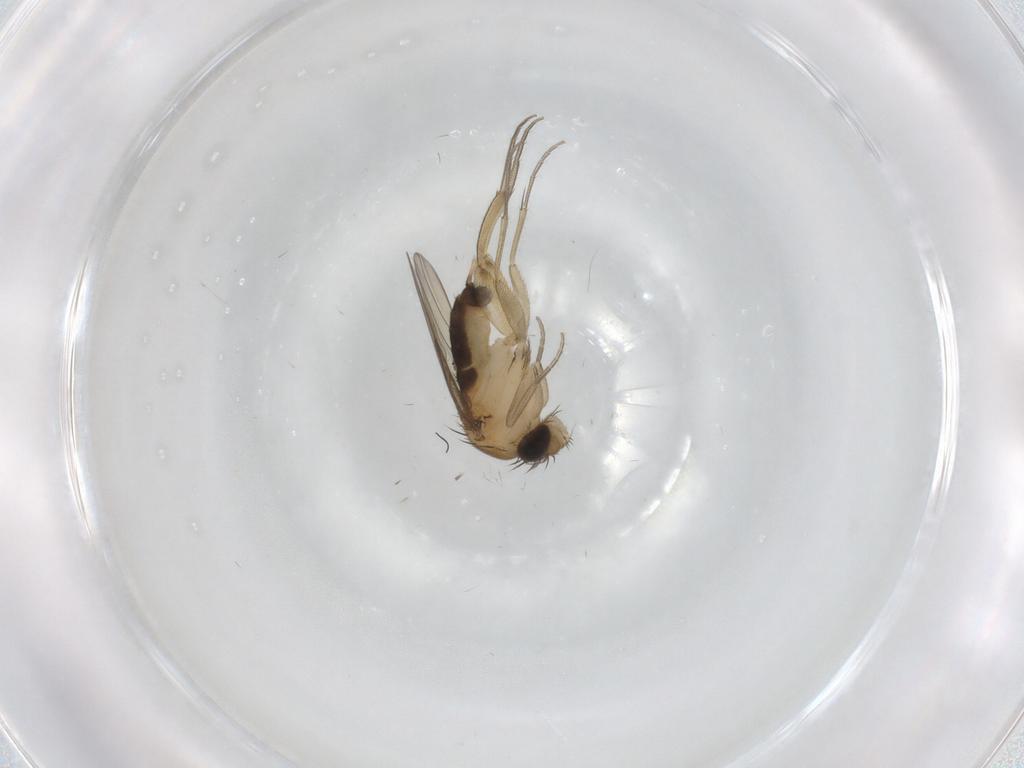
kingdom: Animalia
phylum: Arthropoda
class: Insecta
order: Diptera
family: Phoridae
